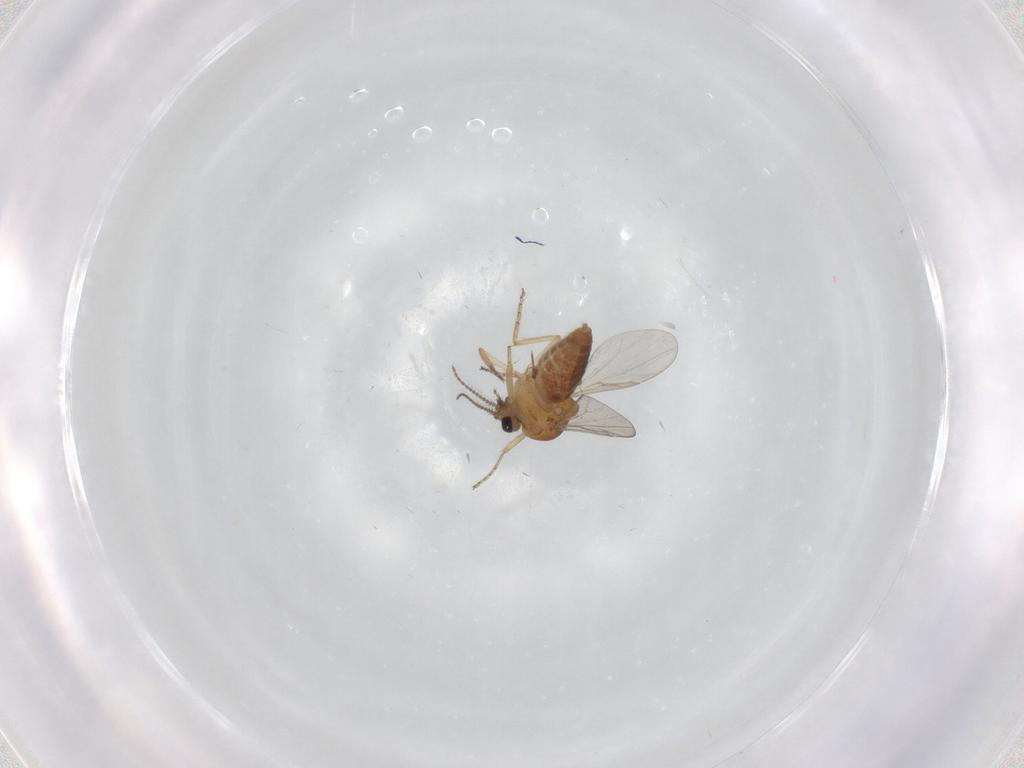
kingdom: Animalia
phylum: Arthropoda
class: Insecta
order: Diptera
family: Ceratopogonidae
